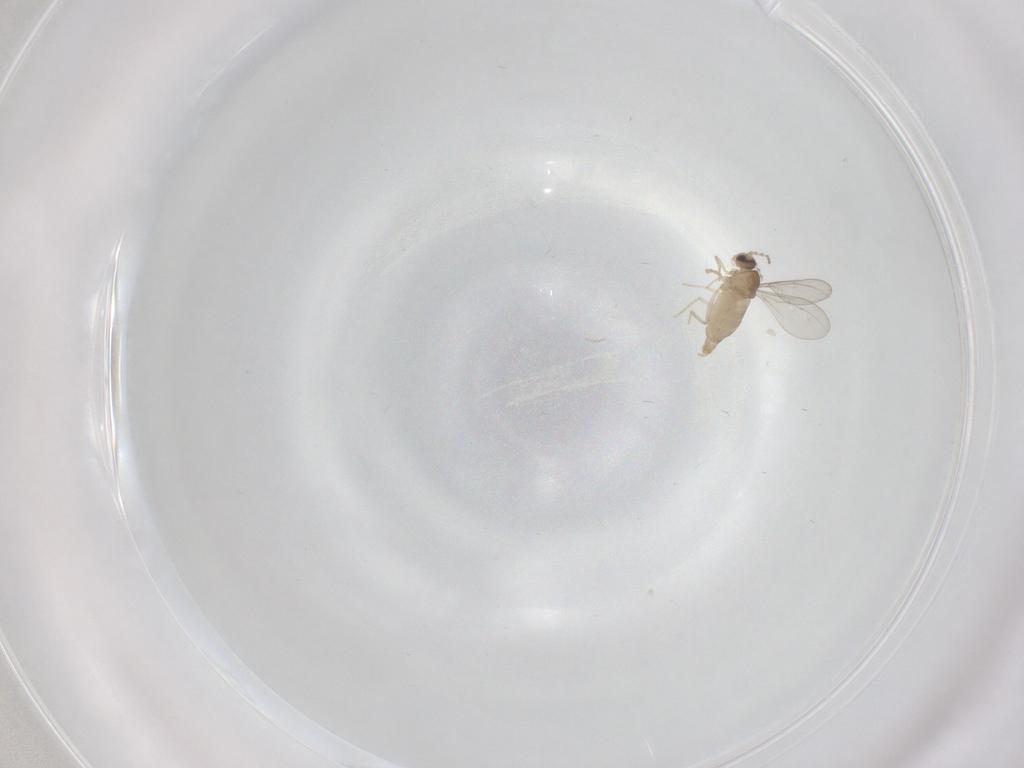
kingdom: Animalia
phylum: Arthropoda
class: Insecta
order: Diptera
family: Cecidomyiidae
